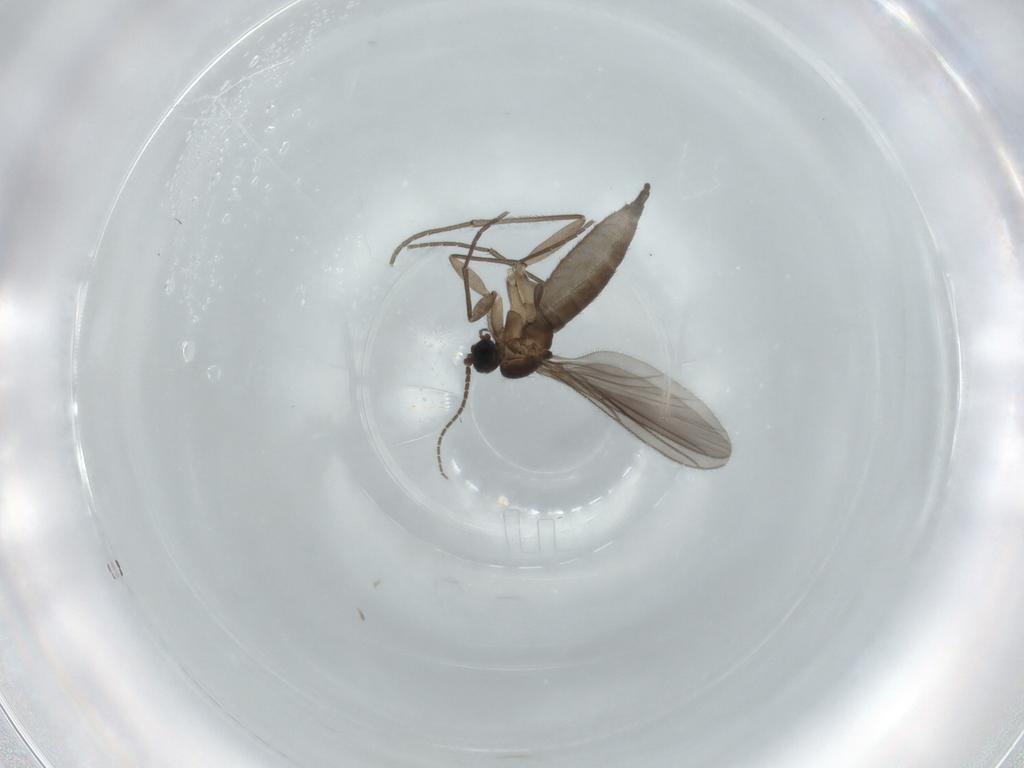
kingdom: Animalia
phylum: Arthropoda
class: Insecta
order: Diptera
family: Sciaridae
